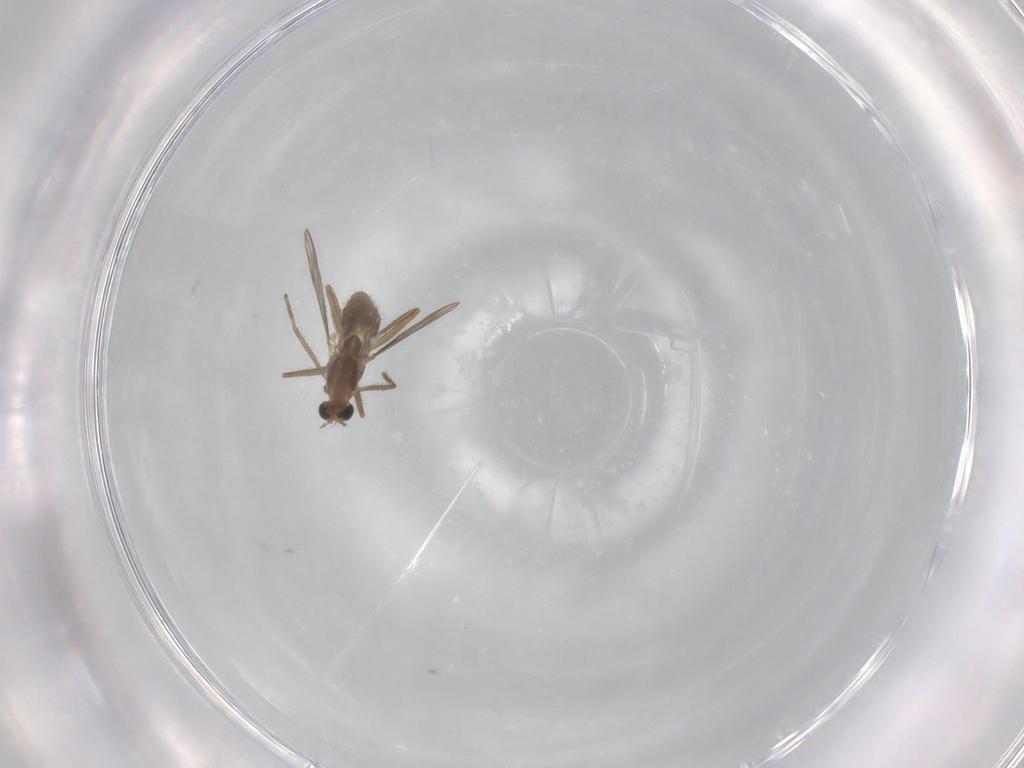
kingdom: Animalia
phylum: Arthropoda
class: Insecta
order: Diptera
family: Chironomidae
